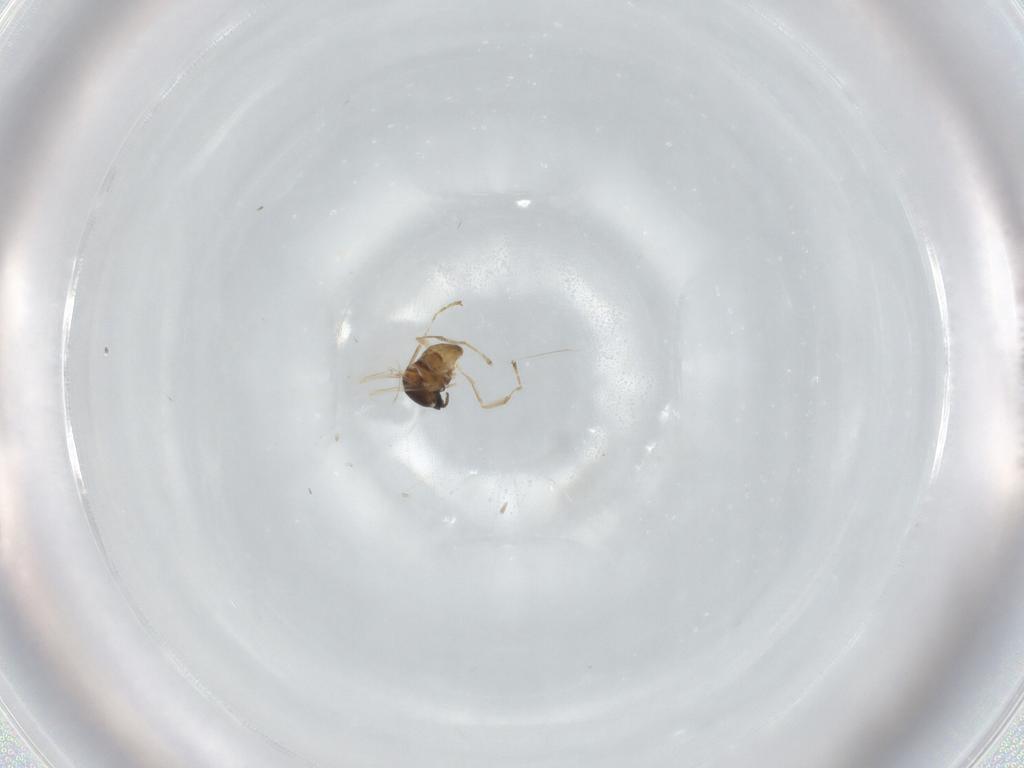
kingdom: Animalia
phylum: Arthropoda
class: Insecta
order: Diptera
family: Cecidomyiidae
